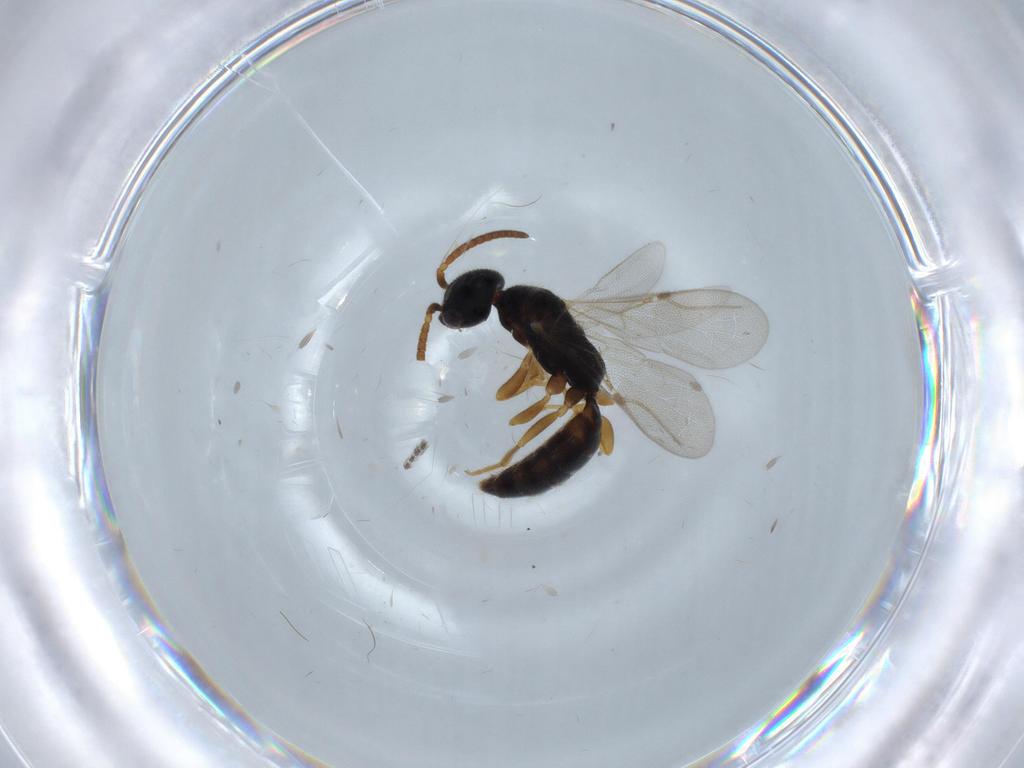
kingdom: Animalia
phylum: Arthropoda
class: Insecta
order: Hymenoptera
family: Bethylidae
